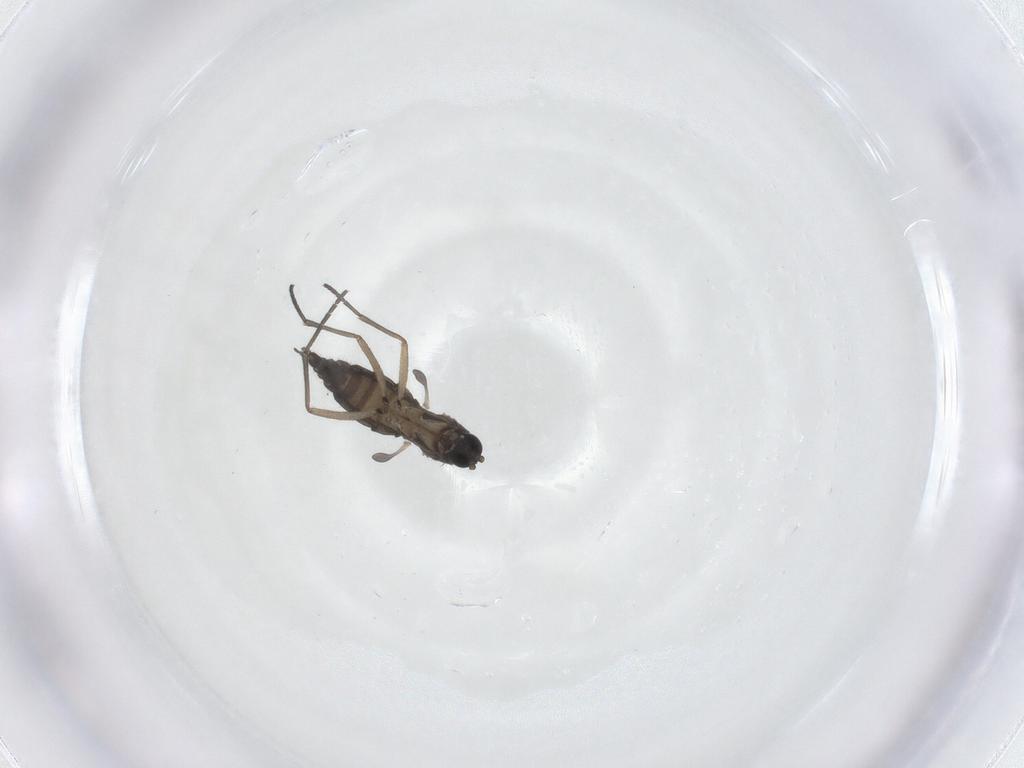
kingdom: Animalia
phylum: Arthropoda
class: Insecta
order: Diptera
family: Sciaridae
